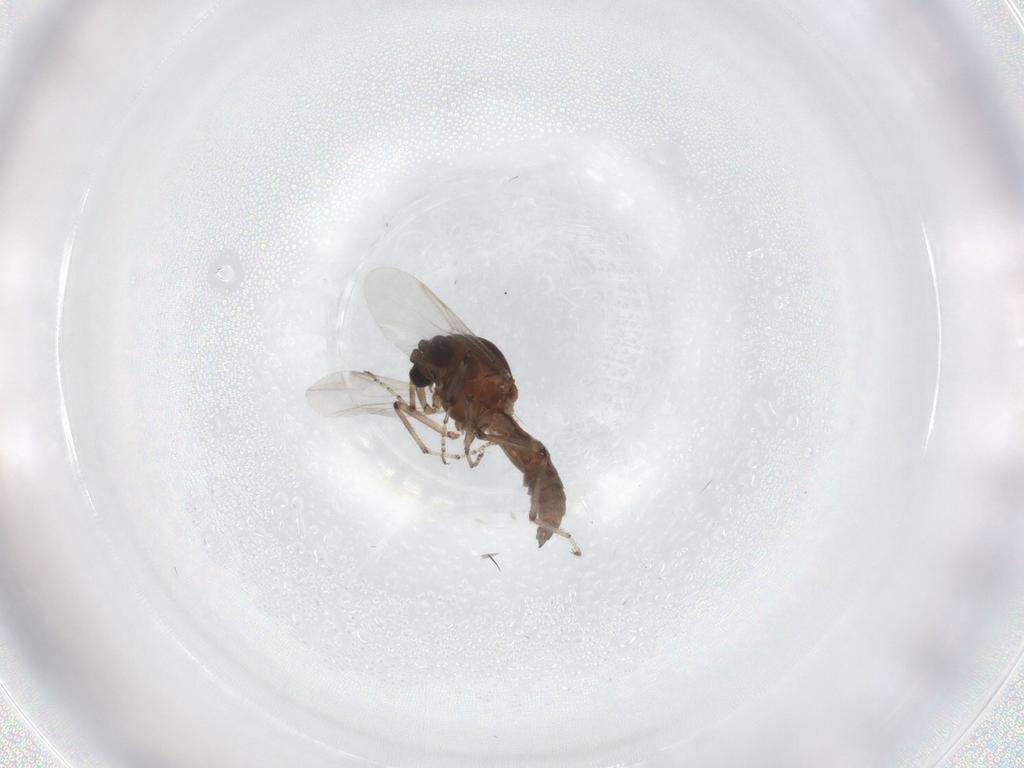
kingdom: Animalia
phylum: Arthropoda
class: Insecta
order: Diptera
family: Ceratopogonidae
